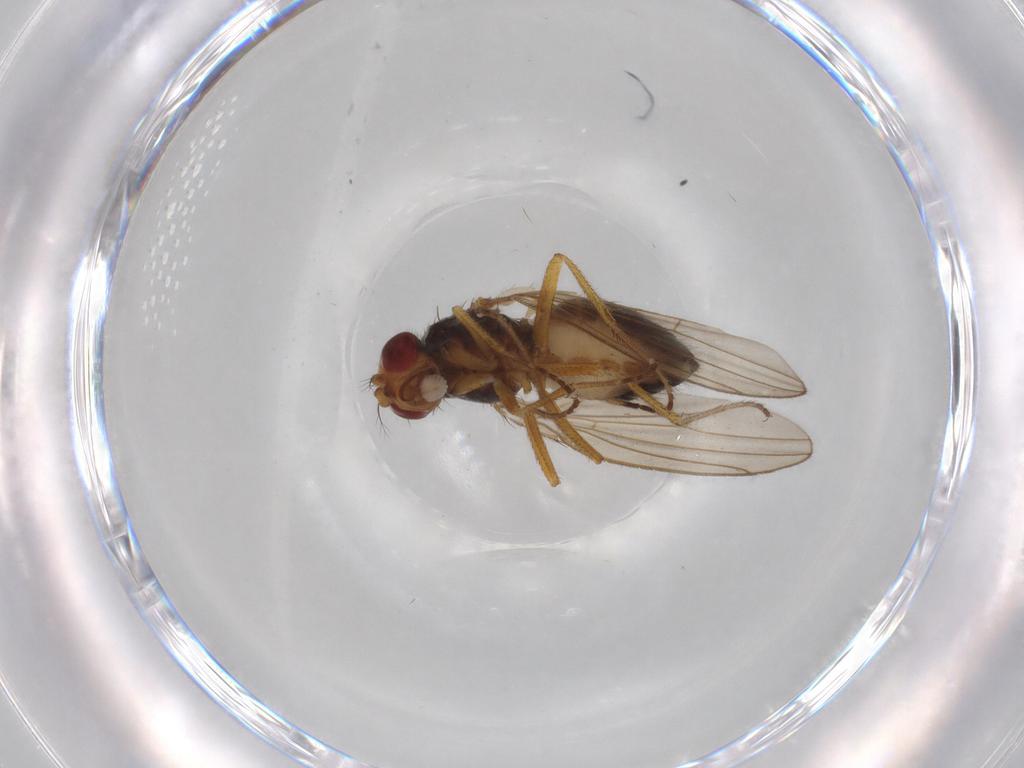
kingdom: Animalia
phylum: Arthropoda
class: Insecta
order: Diptera
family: Drosophilidae
